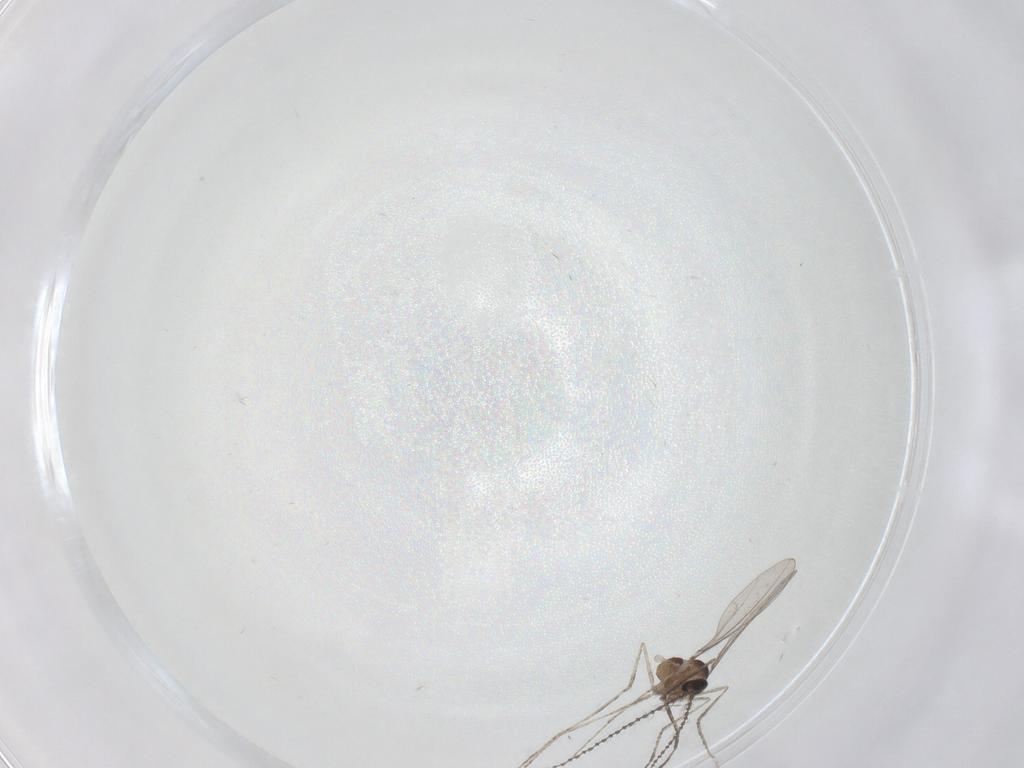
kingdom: Animalia
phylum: Arthropoda
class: Insecta
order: Diptera
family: Cecidomyiidae
